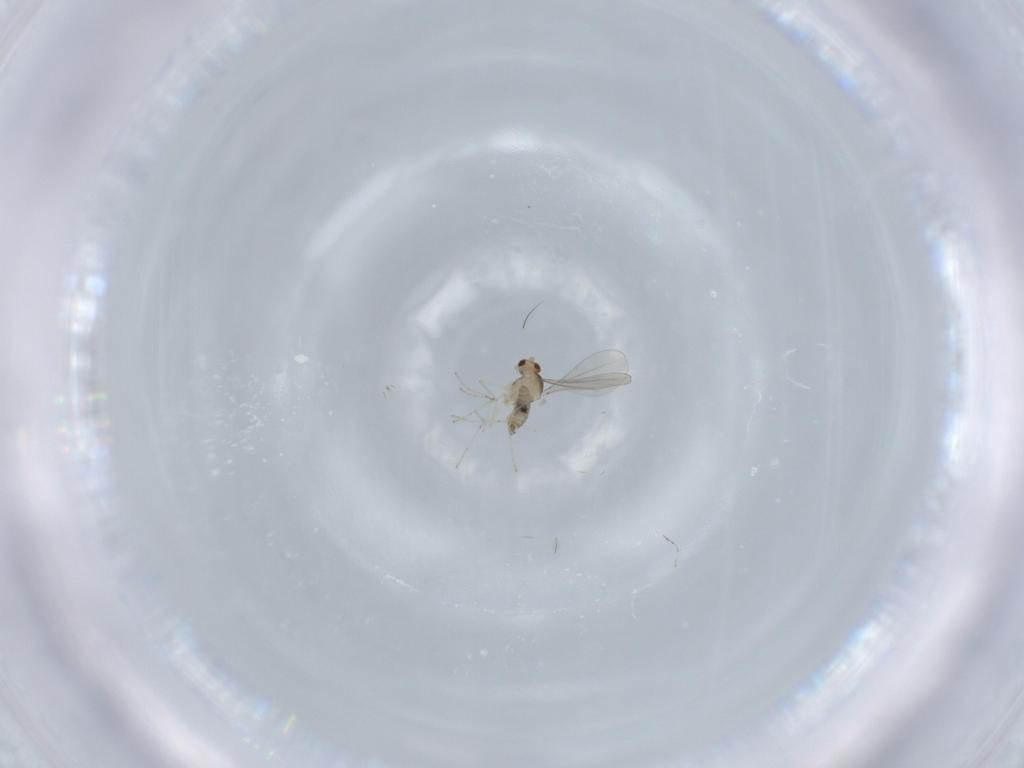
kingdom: Animalia
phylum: Arthropoda
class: Insecta
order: Diptera
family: Cecidomyiidae
